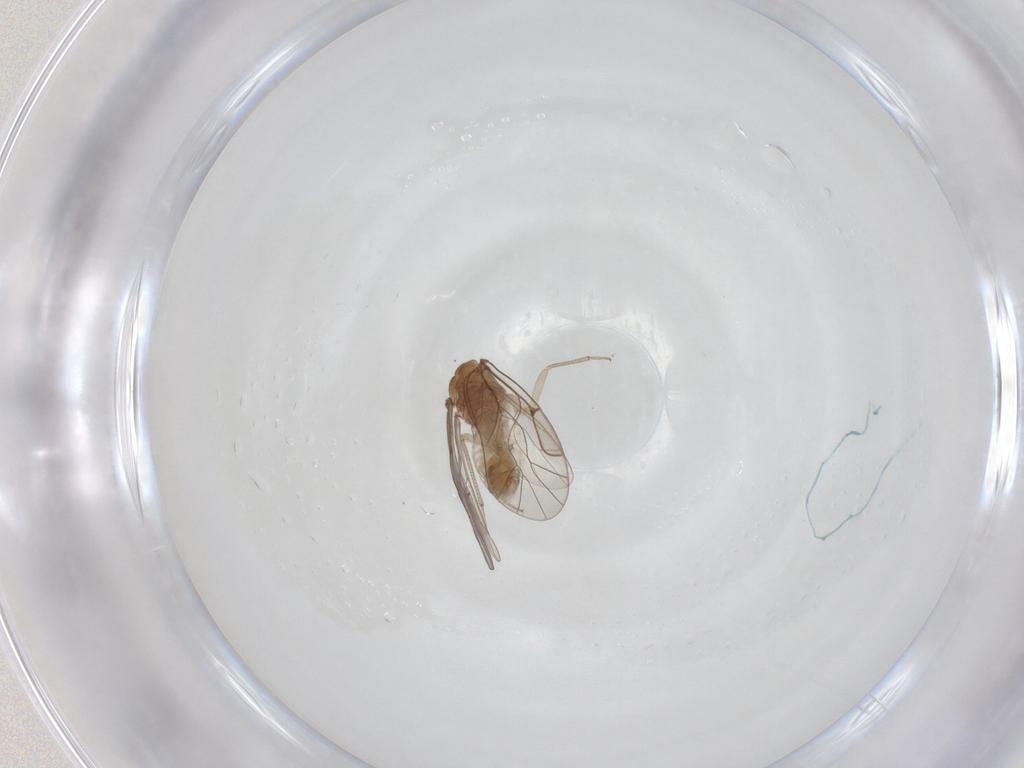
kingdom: Animalia
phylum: Arthropoda
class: Insecta
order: Psocodea
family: Lachesillidae
